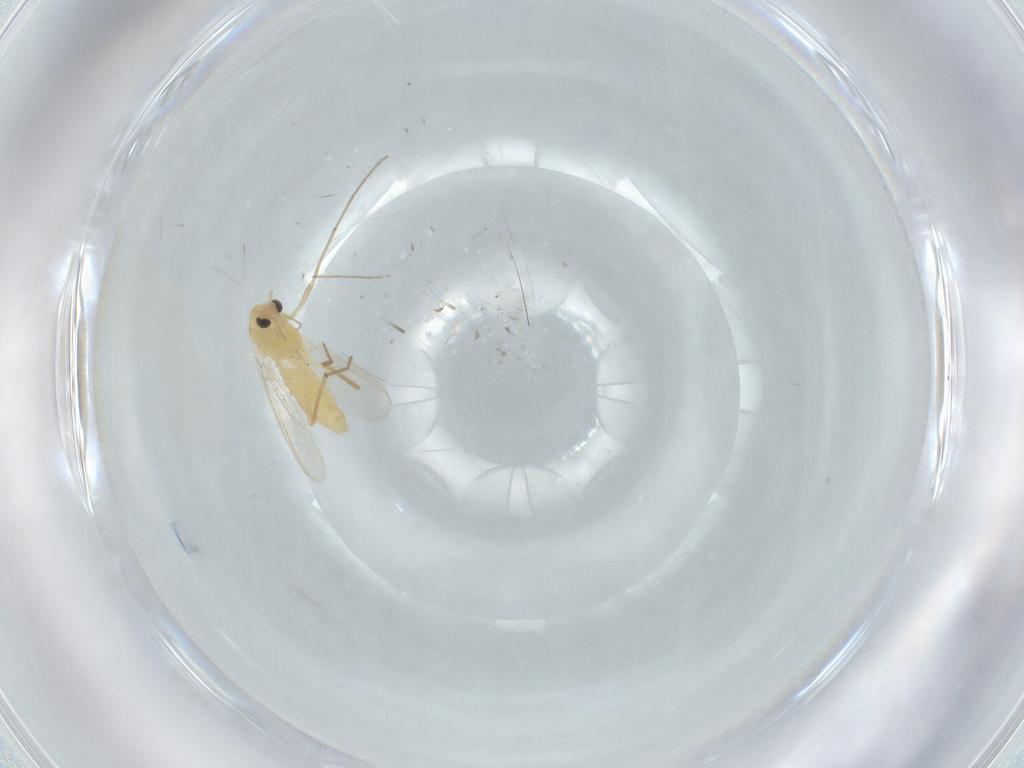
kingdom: Animalia
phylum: Arthropoda
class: Insecta
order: Diptera
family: Chironomidae
